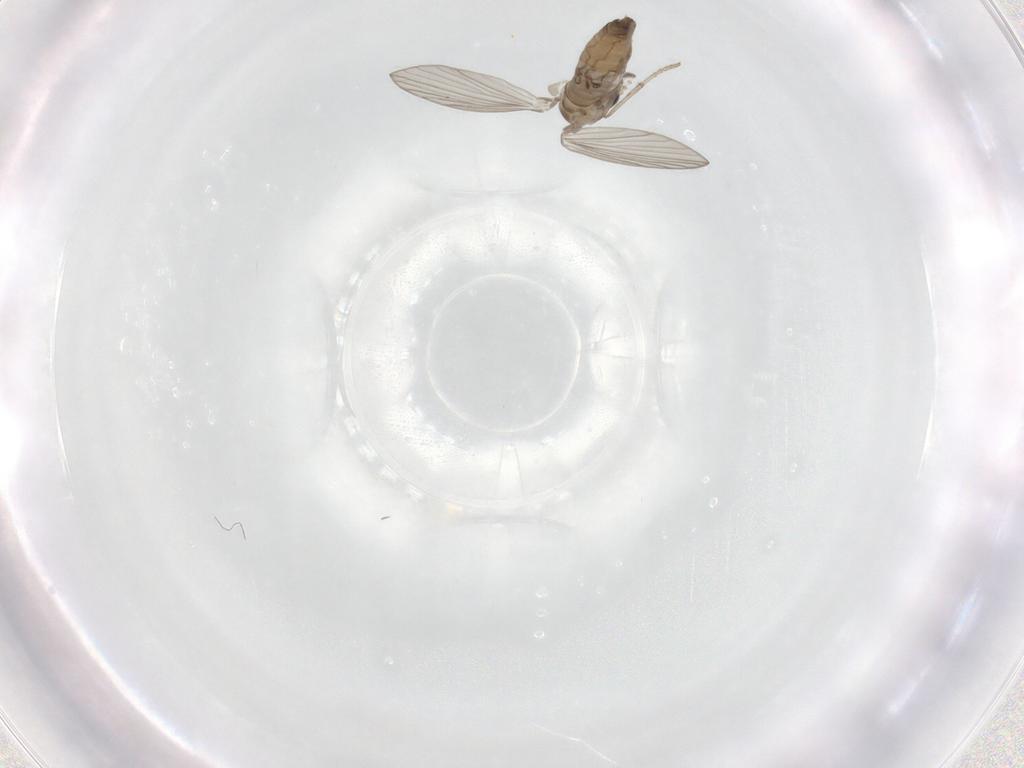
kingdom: Animalia
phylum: Arthropoda
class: Insecta
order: Diptera
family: Psychodidae
